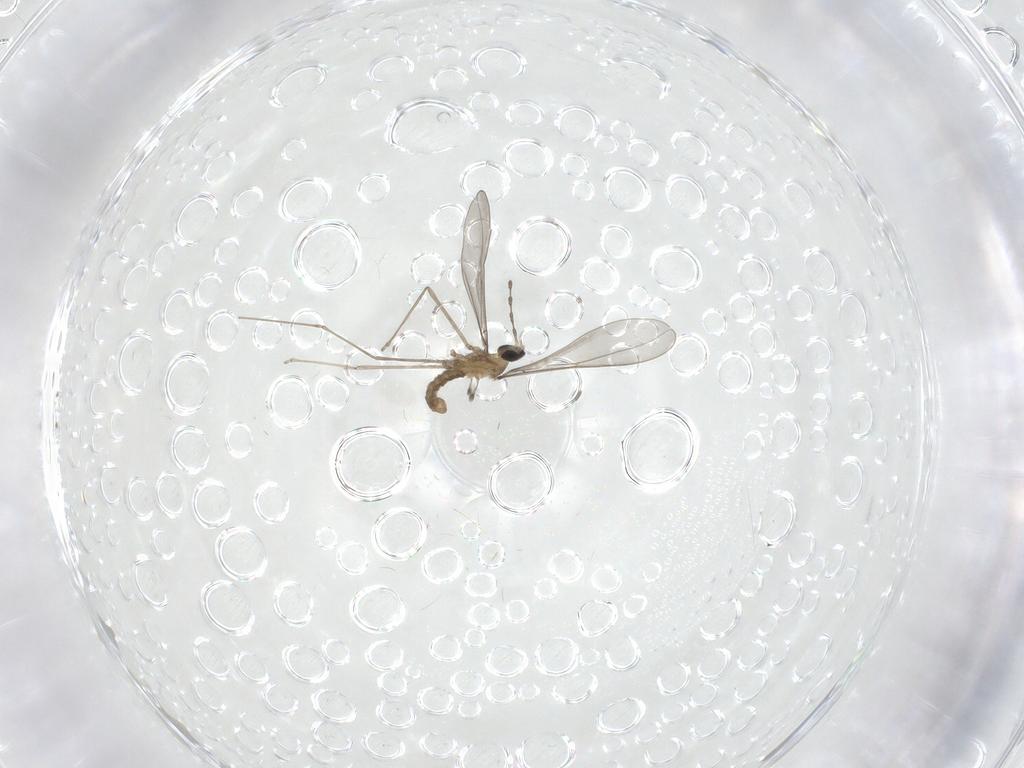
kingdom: Animalia
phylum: Arthropoda
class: Insecta
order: Diptera
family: Cecidomyiidae
